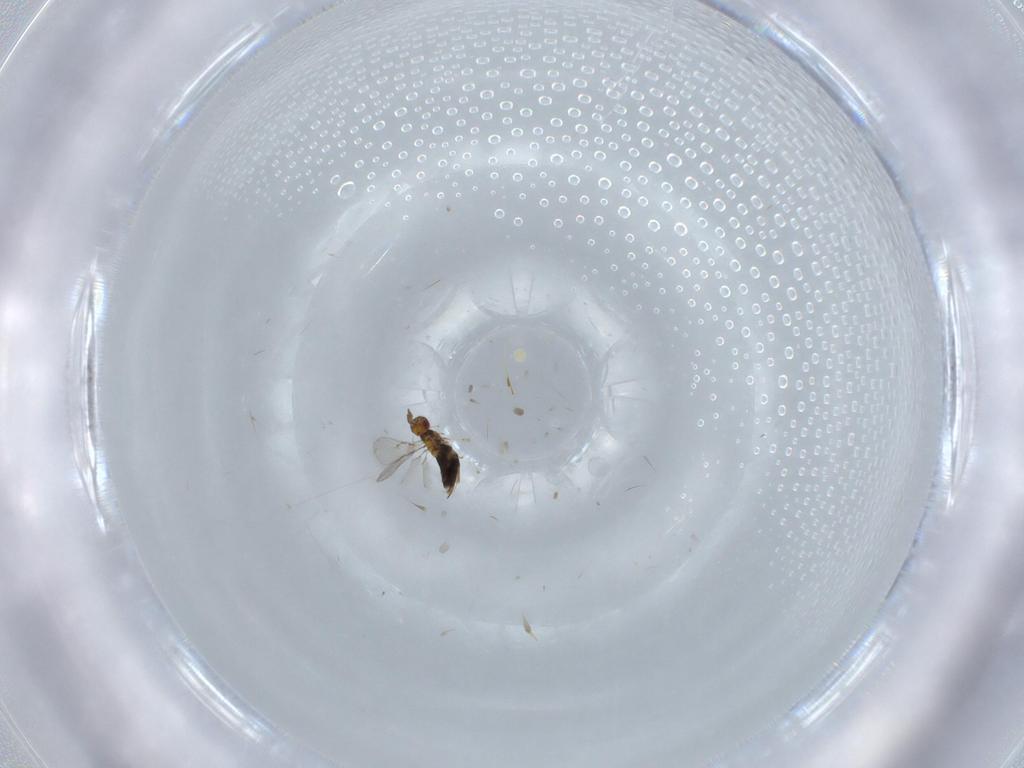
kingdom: Animalia
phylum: Arthropoda
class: Insecta
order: Hymenoptera
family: Trichogrammatidae
